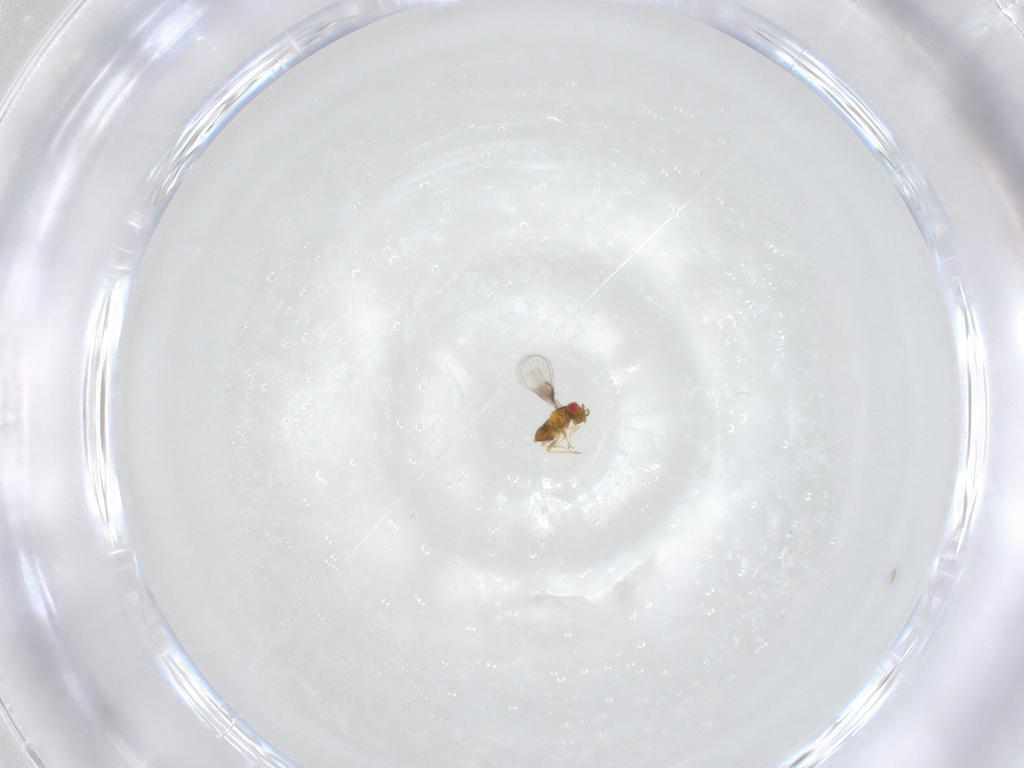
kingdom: Animalia
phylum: Arthropoda
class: Insecta
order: Hymenoptera
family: Trichogrammatidae
